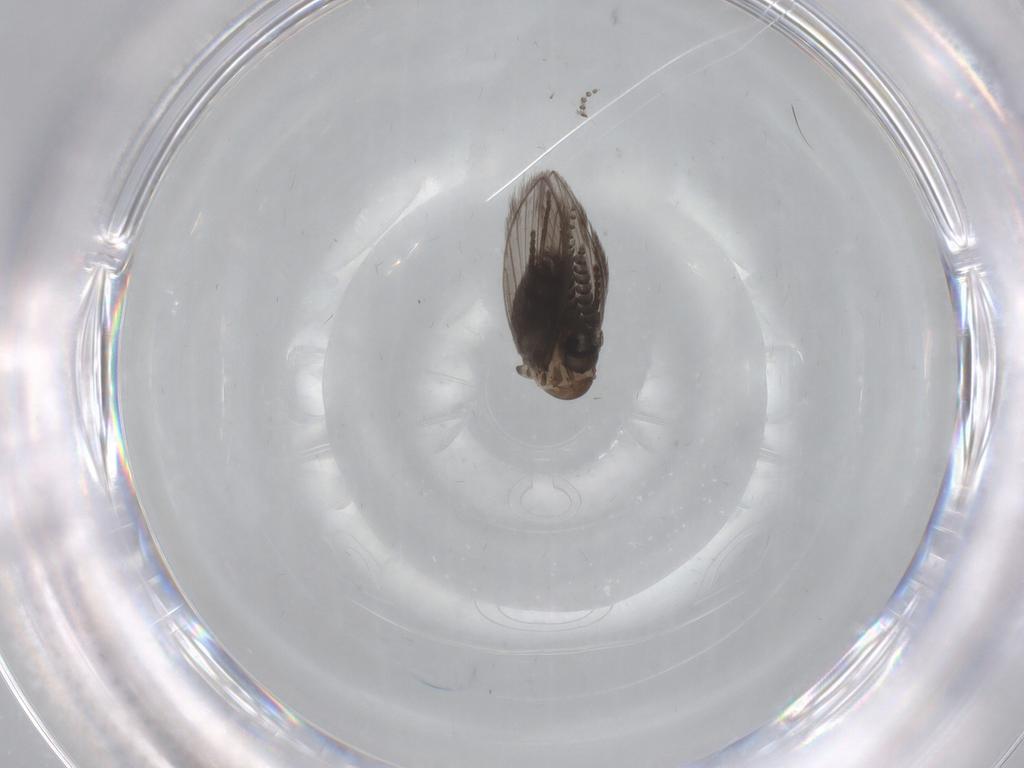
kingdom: Animalia
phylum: Arthropoda
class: Insecta
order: Diptera
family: Psychodidae
